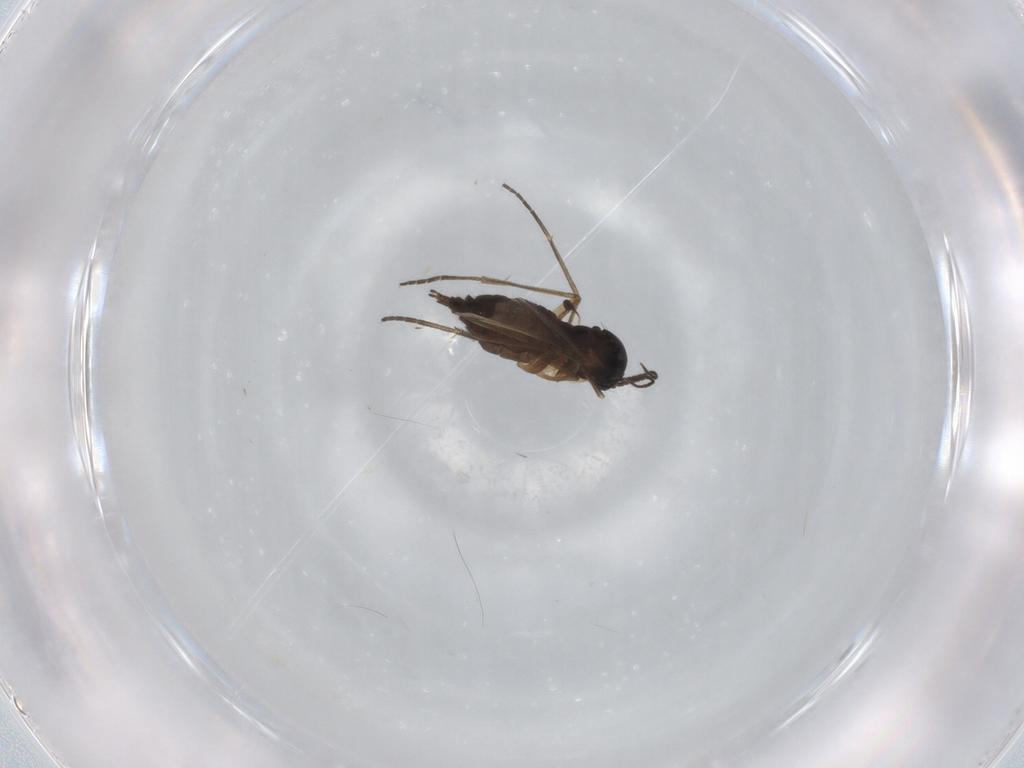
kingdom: Animalia
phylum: Arthropoda
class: Insecta
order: Diptera
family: Sciaridae
